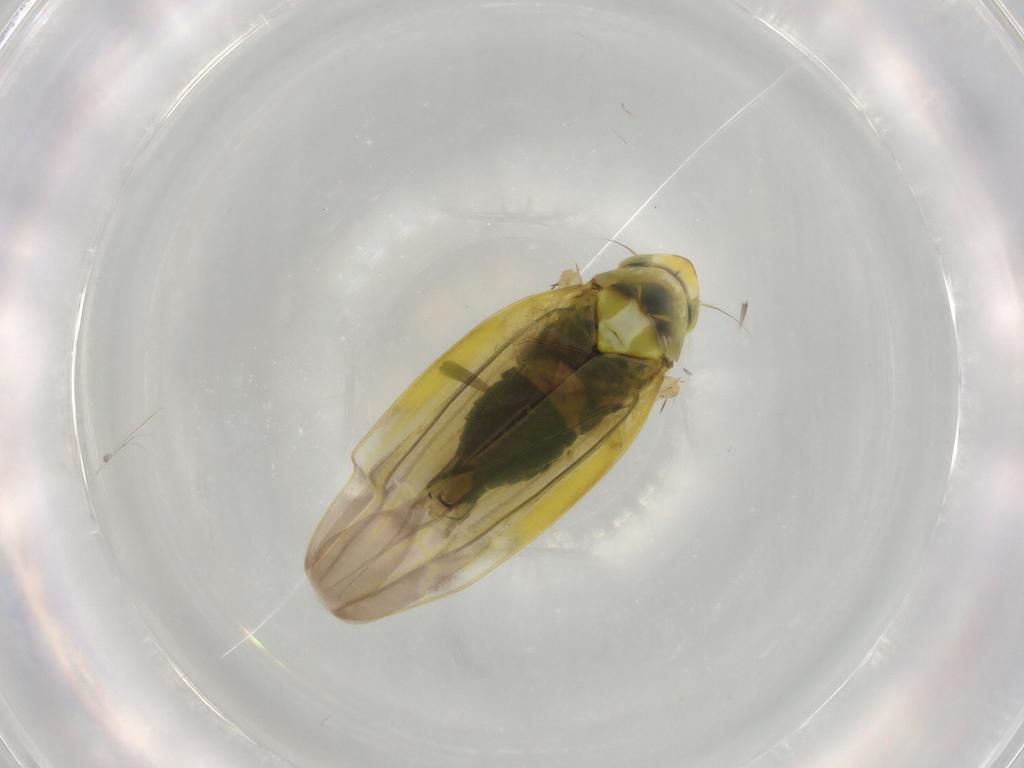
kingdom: Animalia
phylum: Arthropoda
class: Insecta
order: Hemiptera
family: Cicadellidae
